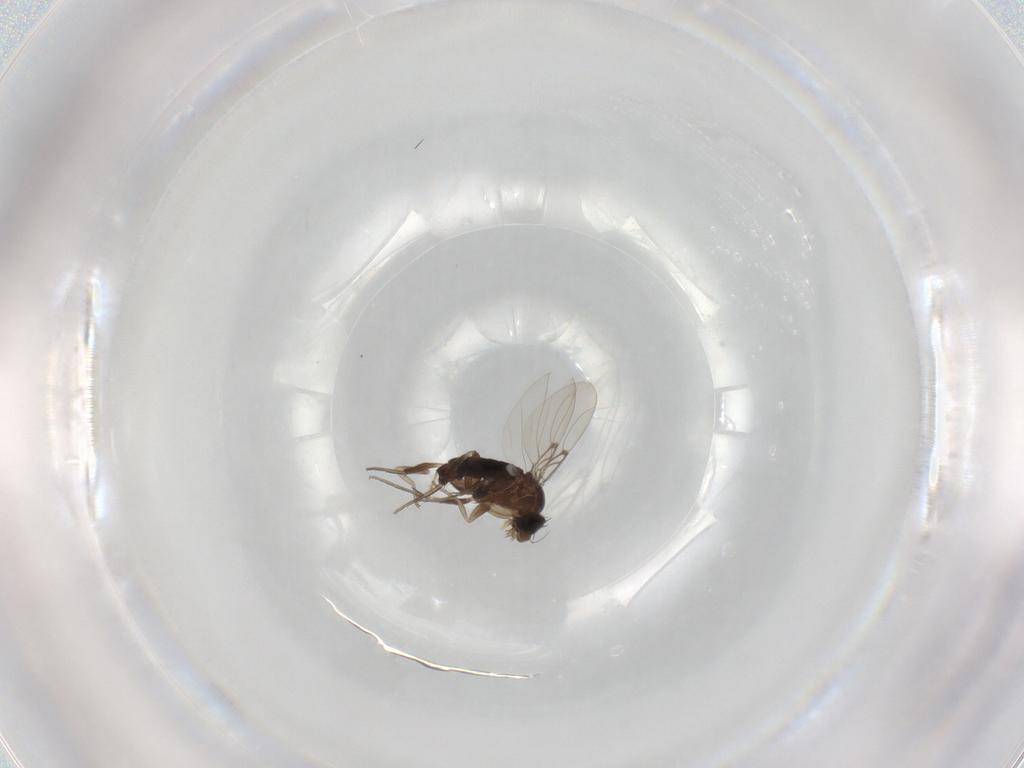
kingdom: Animalia
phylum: Arthropoda
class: Insecta
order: Diptera
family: Phoridae
